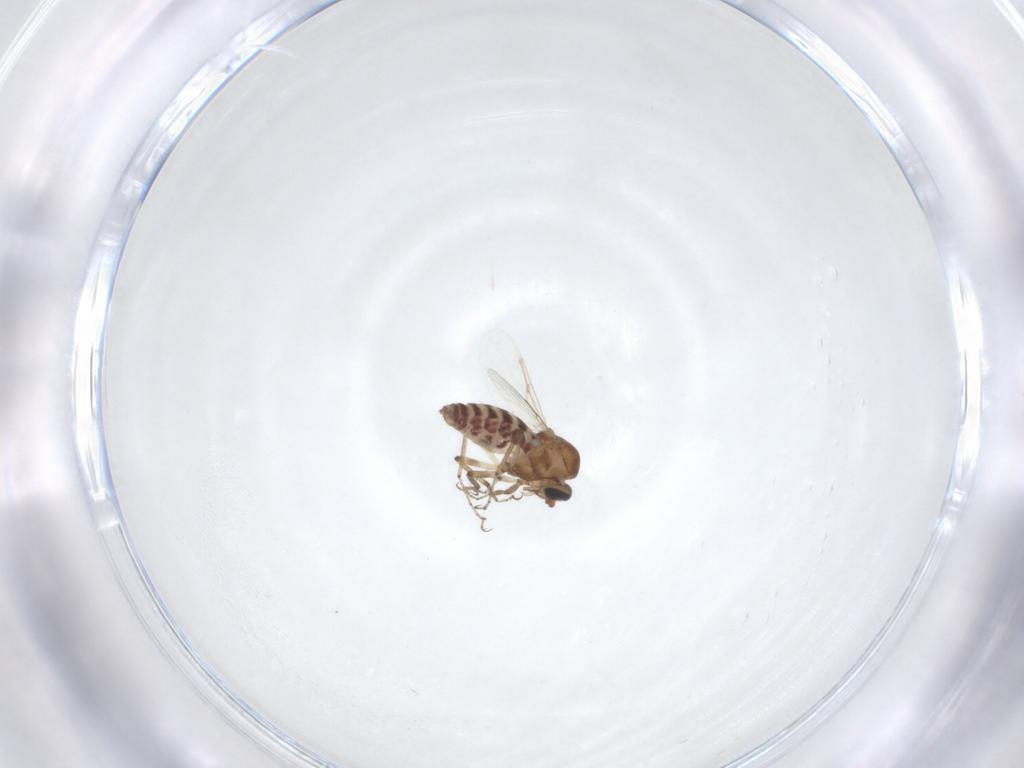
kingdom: Animalia
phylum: Arthropoda
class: Insecta
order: Diptera
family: Ceratopogonidae
